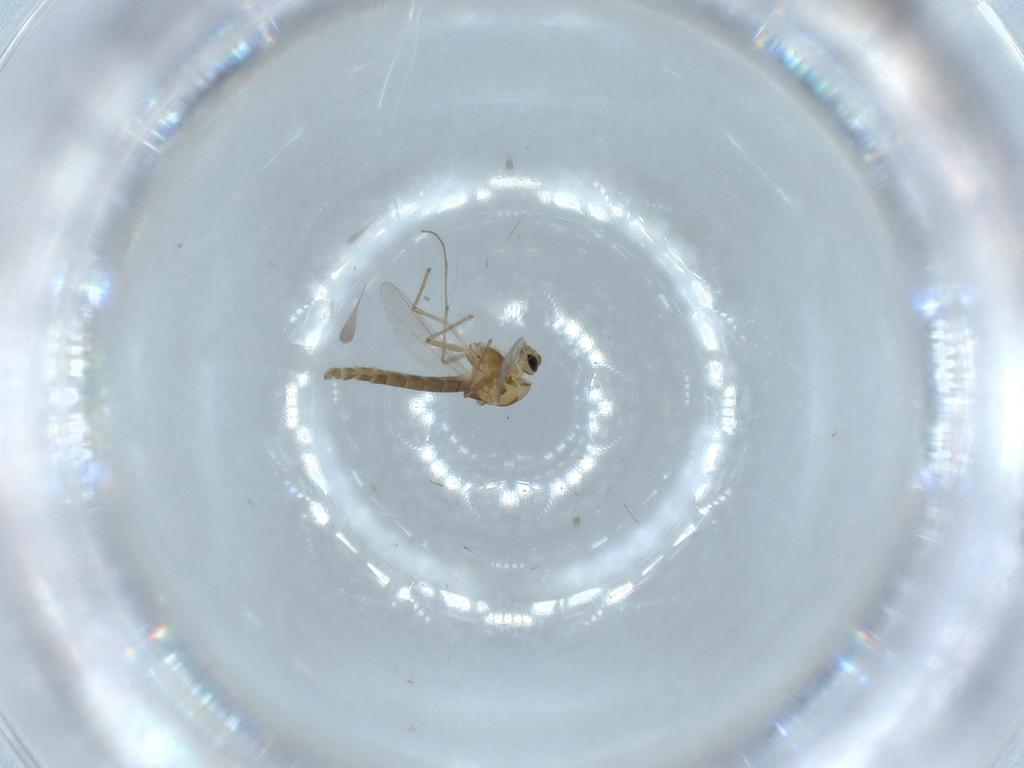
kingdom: Animalia
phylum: Arthropoda
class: Insecta
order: Diptera
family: Chironomidae
